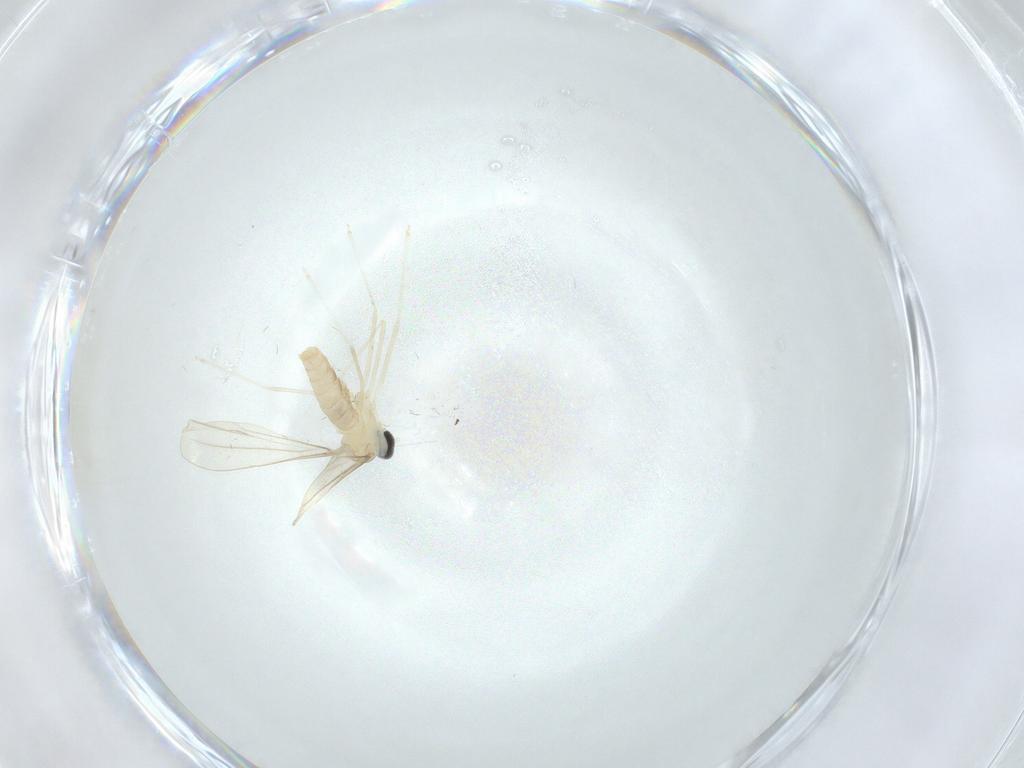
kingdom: Animalia
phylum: Arthropoda
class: Insecta
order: Diptera
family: Cecidomyiidae
